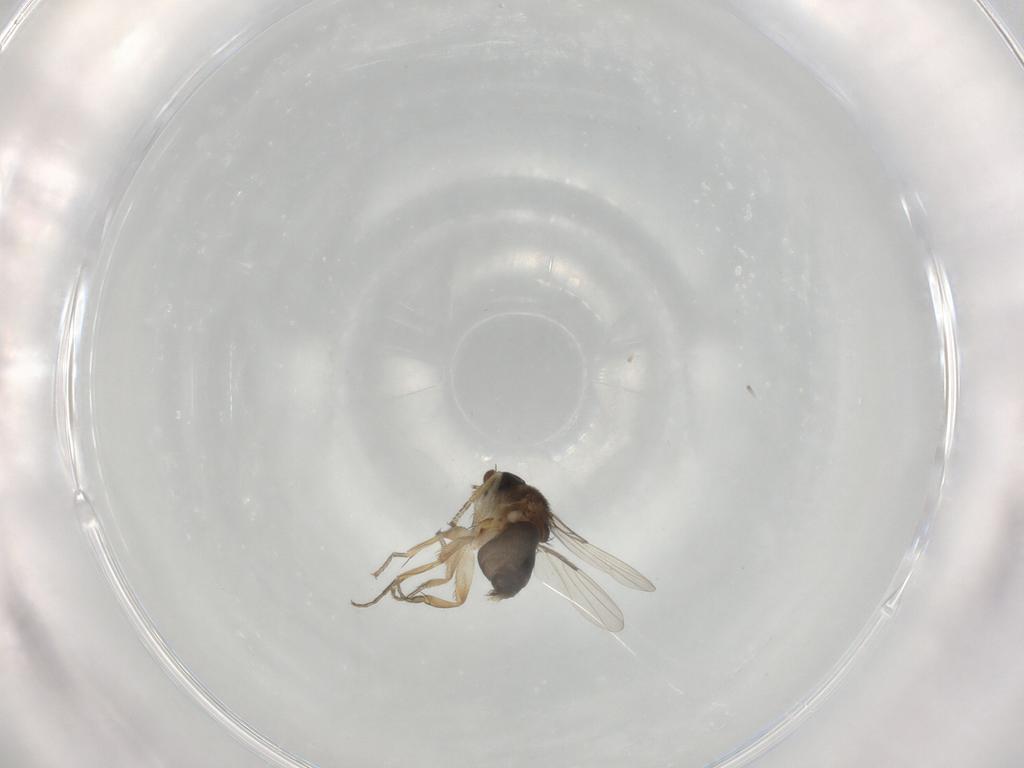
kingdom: Animalia
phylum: Arthropoda
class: Insecta
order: Diptera
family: Phoridae
